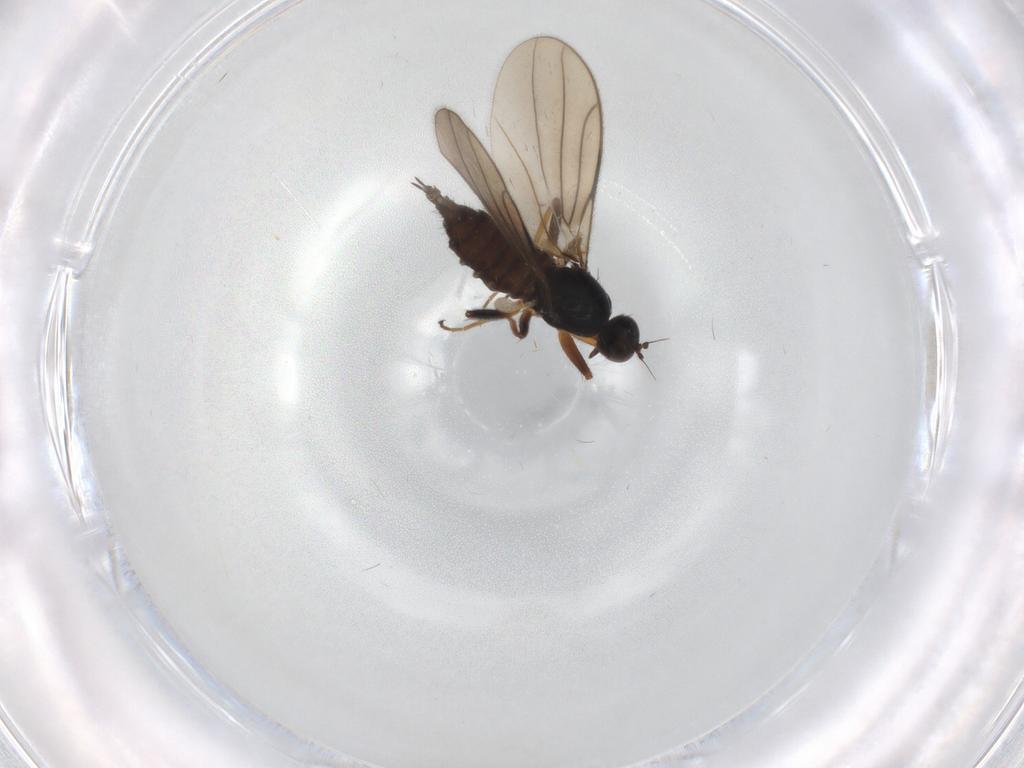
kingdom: Animalia
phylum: Arthropoda
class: Insecta
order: Diptera
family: Hybotidae
